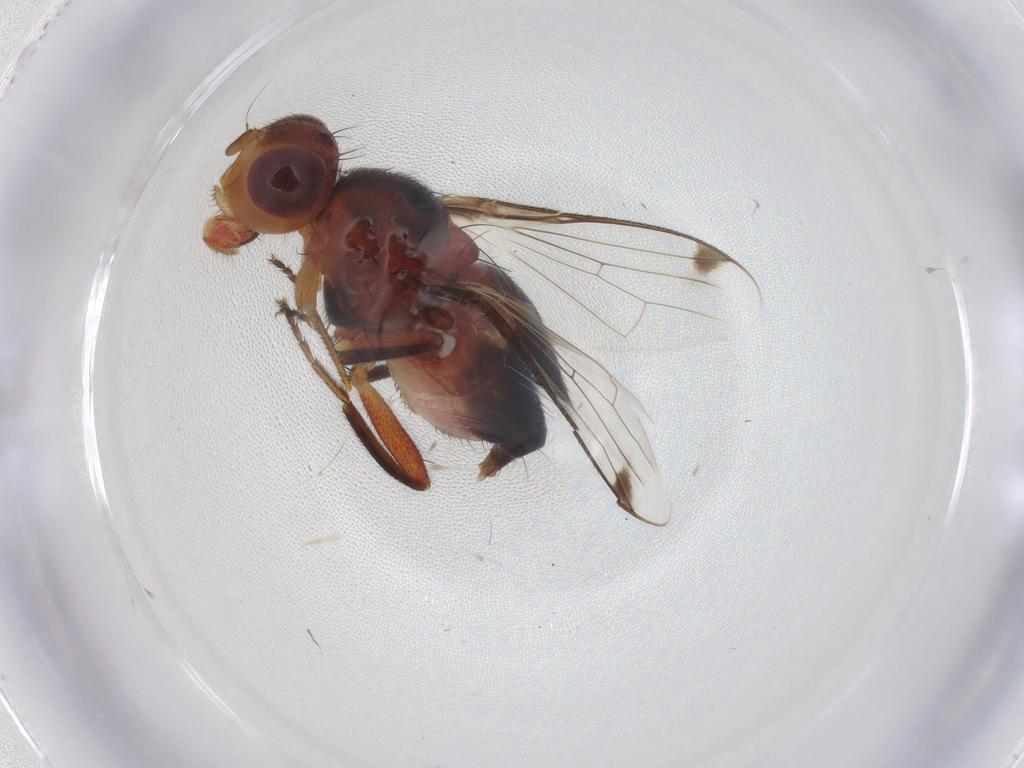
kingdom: Animalia
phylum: Arthropoda
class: Insecta
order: Diptera
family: Richardiidae
